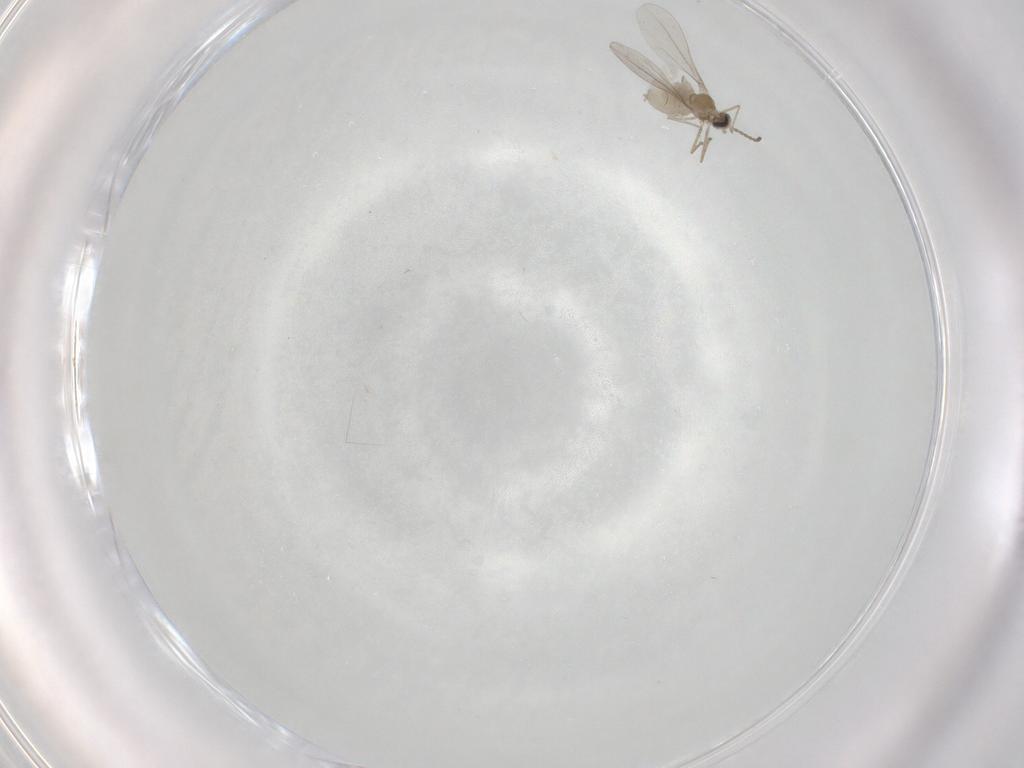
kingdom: Animalia
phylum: Arthropoda
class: Insecta
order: Diptera
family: Cecidomyiidae
